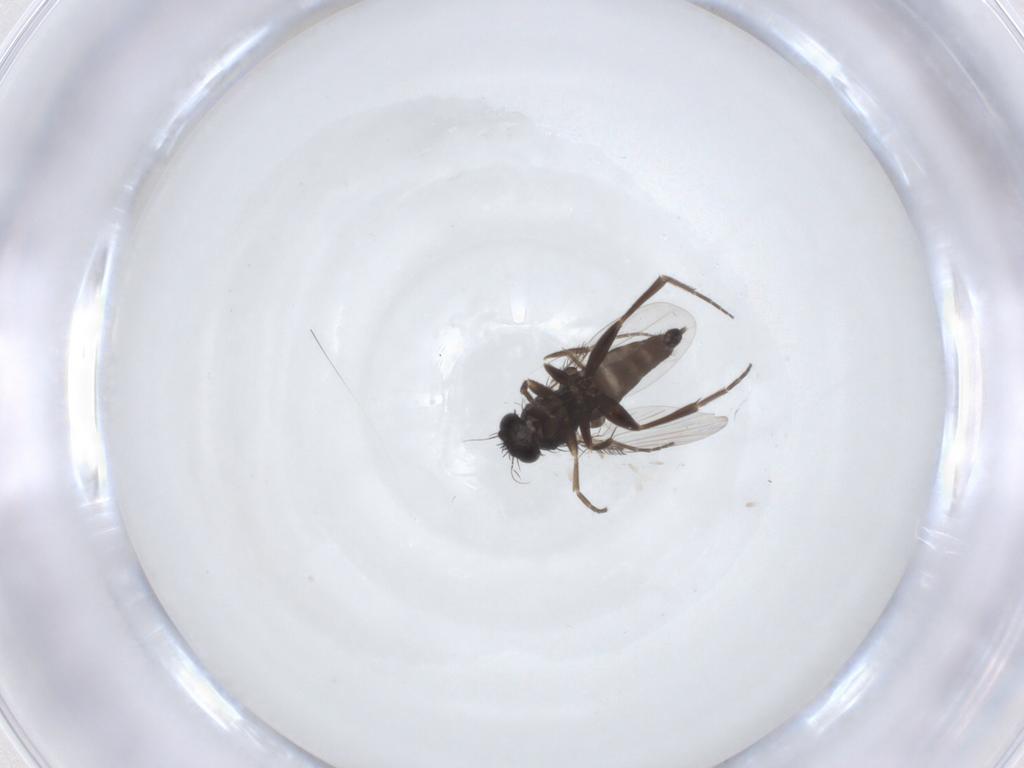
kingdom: Animalia
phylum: Arthropoda
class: Insecta
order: Diptera
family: Phoridae
